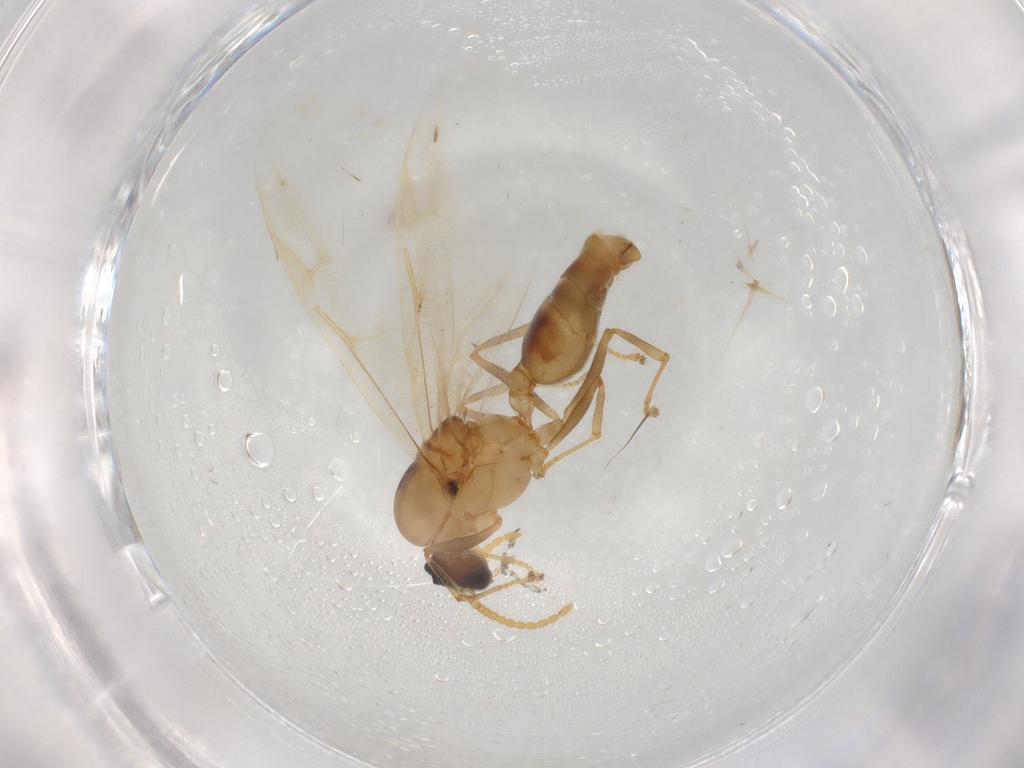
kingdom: Animalia
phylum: Arthropoda
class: Insecta
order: Hymenoptera
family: Formicidae
